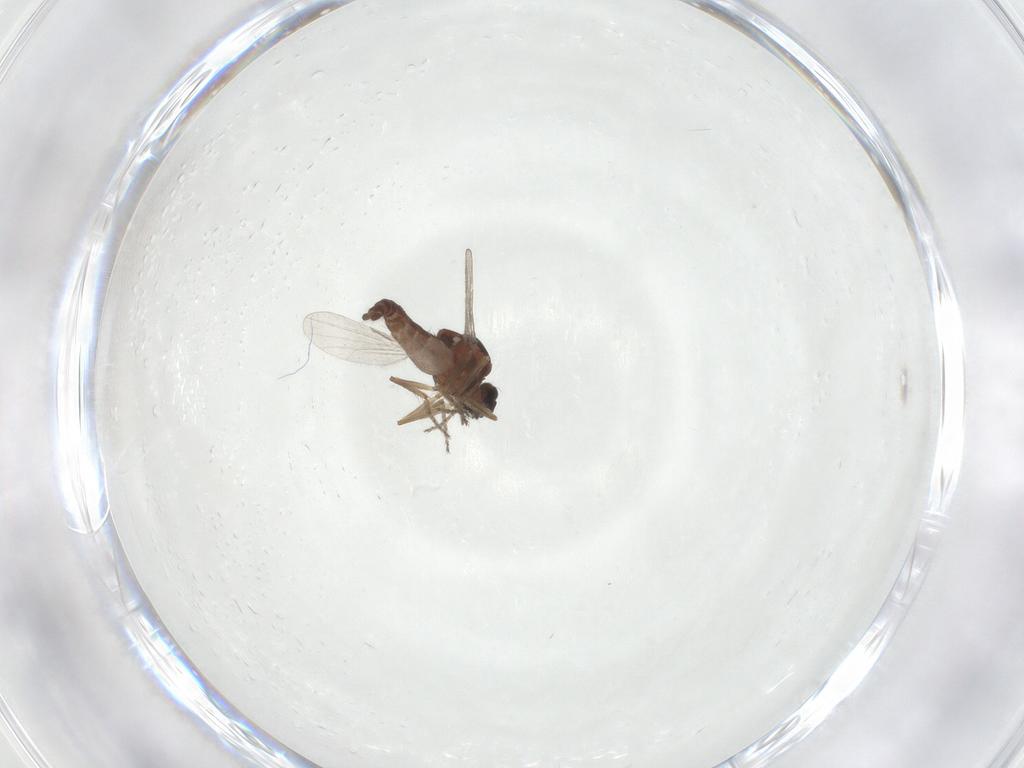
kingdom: Animalia
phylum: Arthropoda
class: Insecta
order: Diptera
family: Ceratopogonidae
